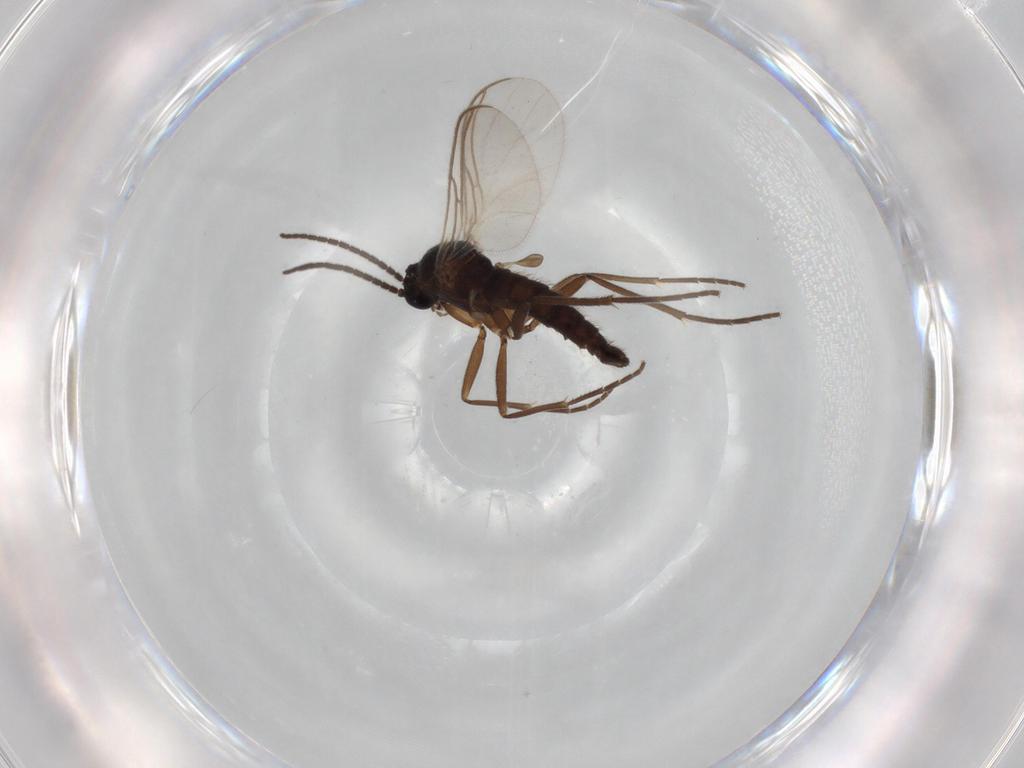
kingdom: Animalia
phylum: Arthropoda
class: Insecta
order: Diptera
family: Sciaridae
